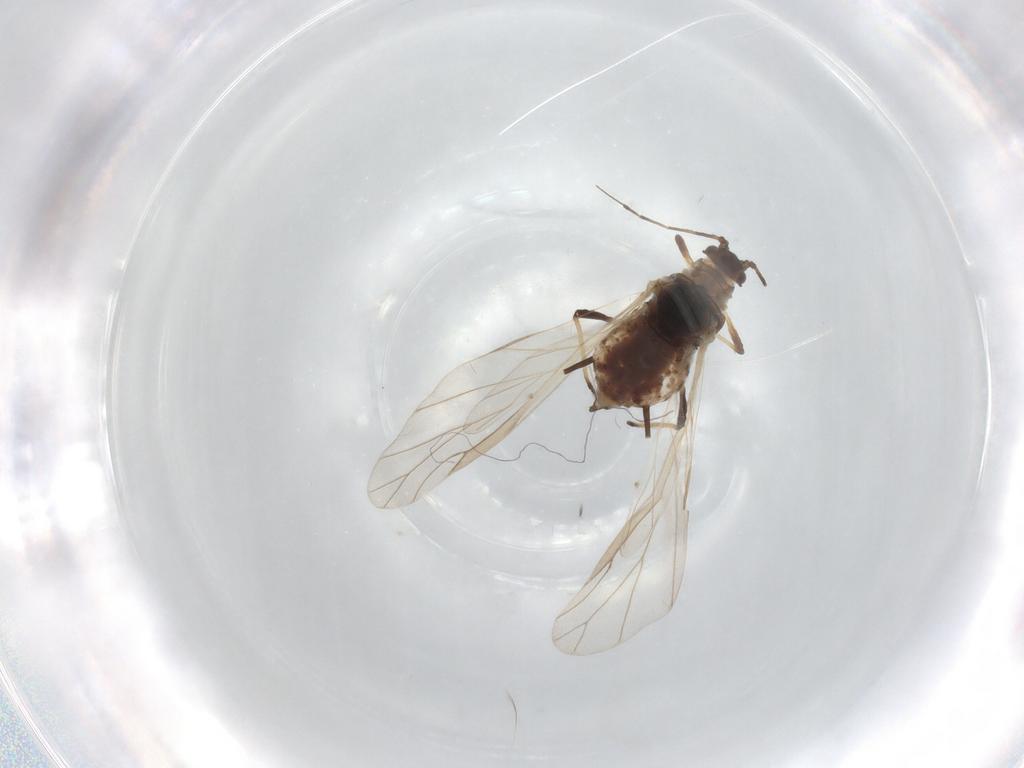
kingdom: Animalia
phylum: Arthropoda
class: Insecta
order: Hemiptera
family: Aphididae
